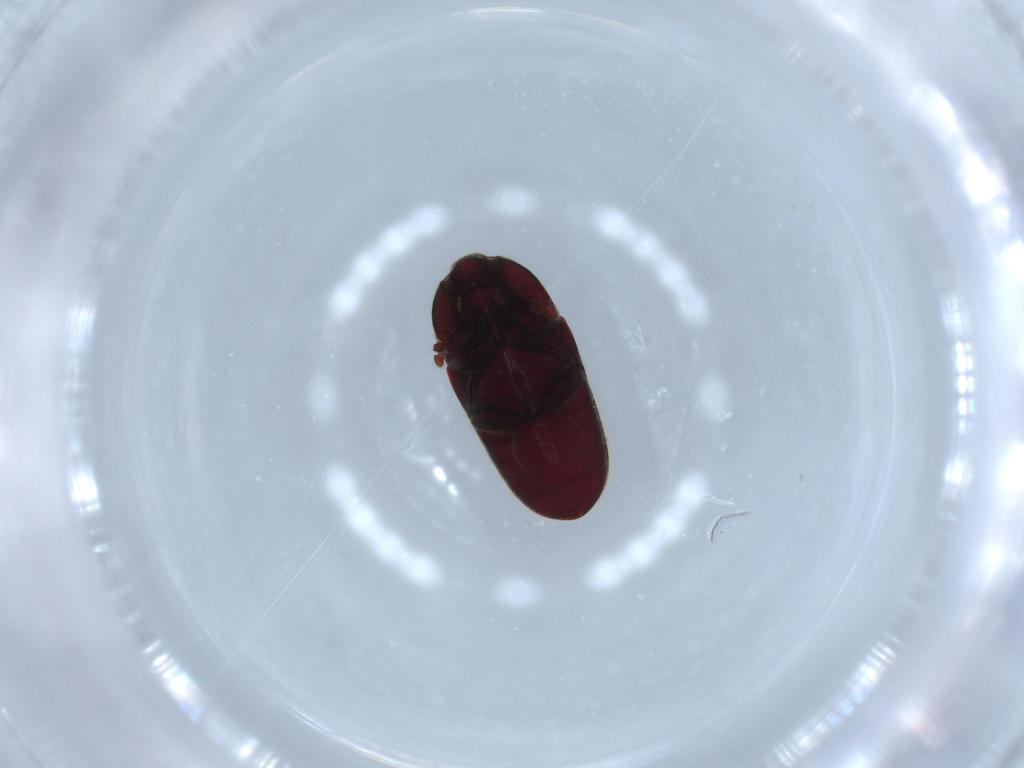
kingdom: Animalia
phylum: Arthropoda
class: Insecta
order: Coleoptera
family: Throscidae
